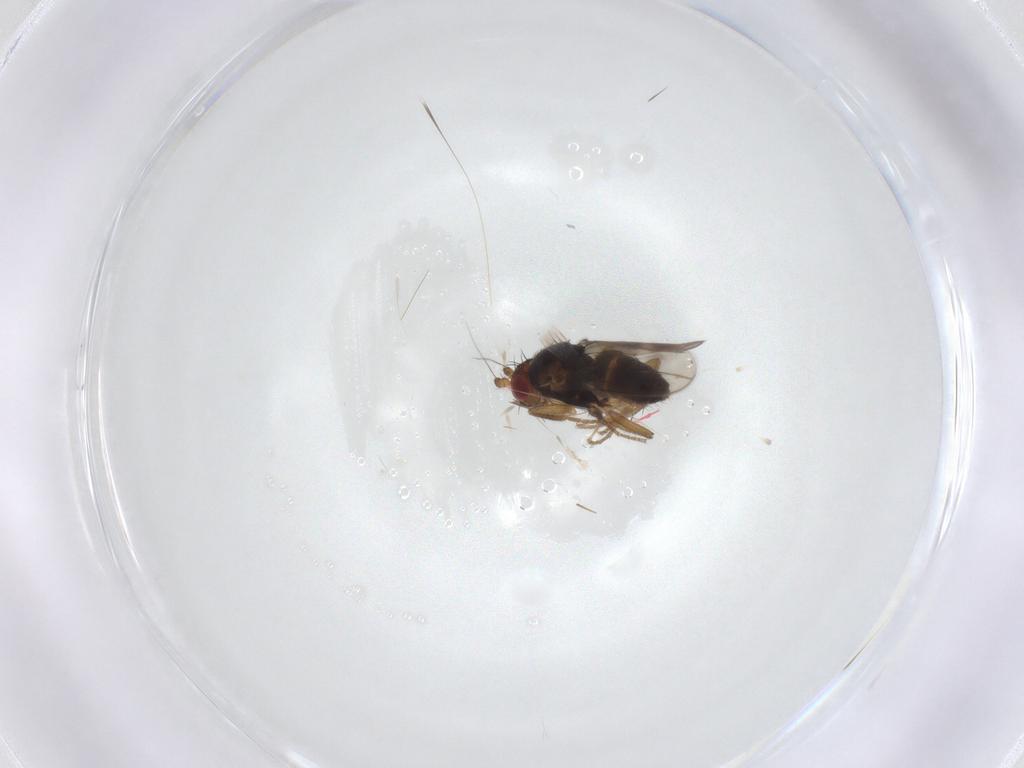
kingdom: Animalia
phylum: Arthropoda
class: Insecta
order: Diptera
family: Sphaeroceridae
